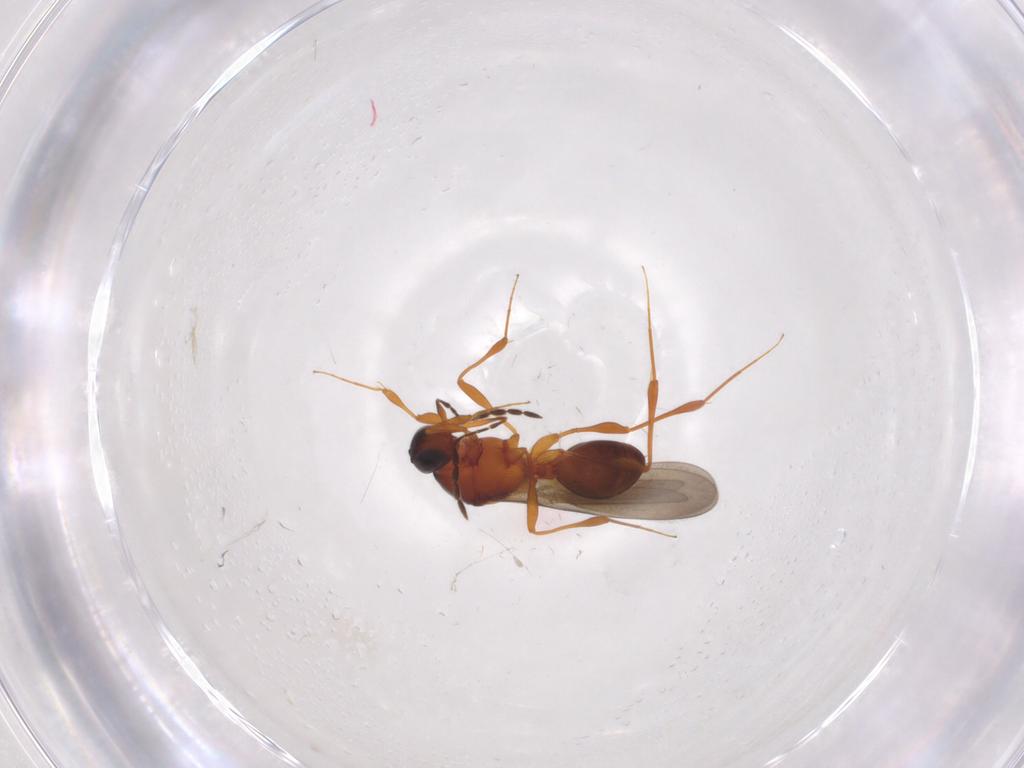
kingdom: Animalia
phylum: Arthropoda
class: Insecta
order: Hymenoptera
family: Platygastridae
